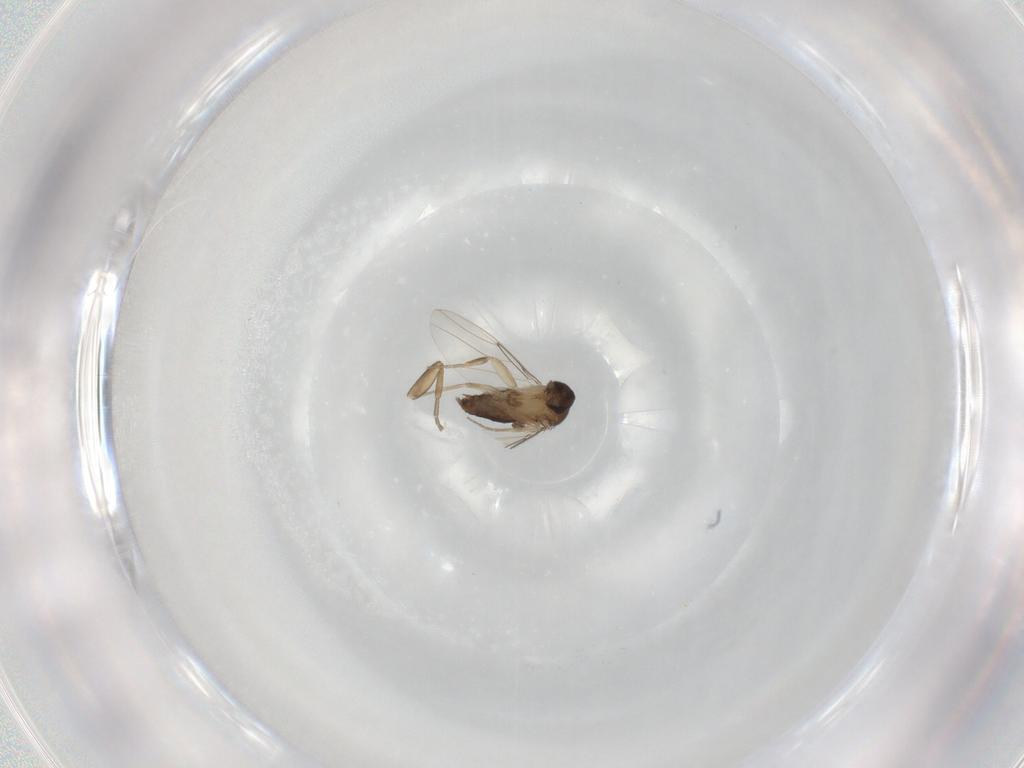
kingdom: Animalia
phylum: Arthropoda
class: Insecta
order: Diptera
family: Phoridae
